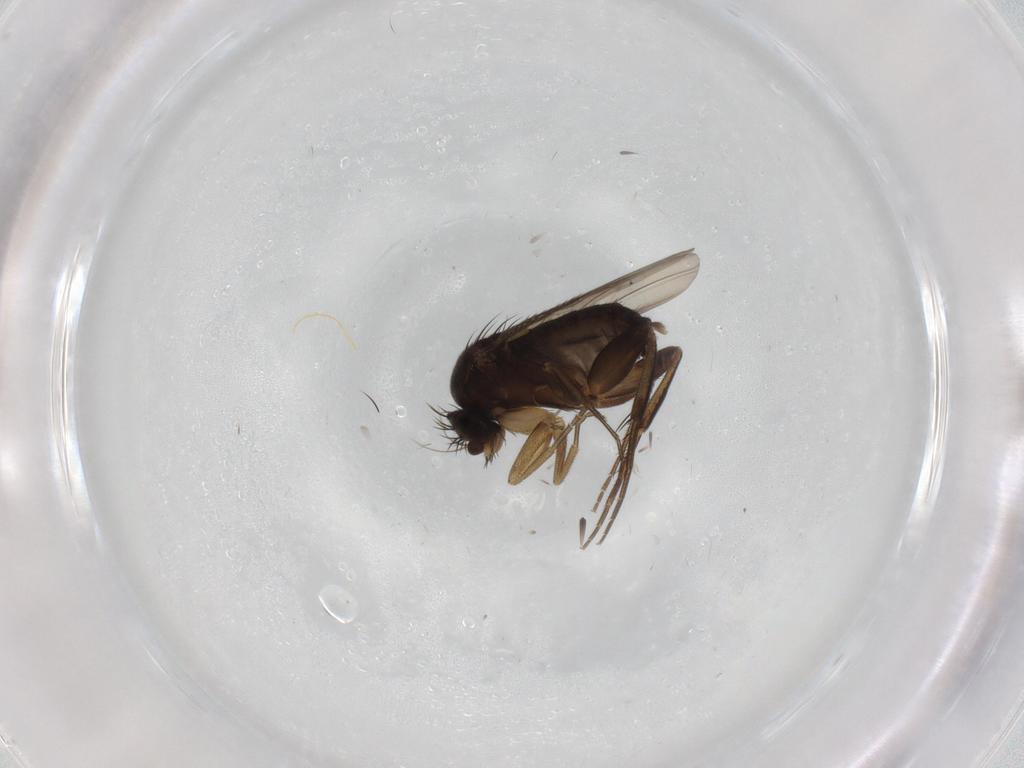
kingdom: Animalia
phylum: Arthropoda
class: Insecta
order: Diptera
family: Phoridae
